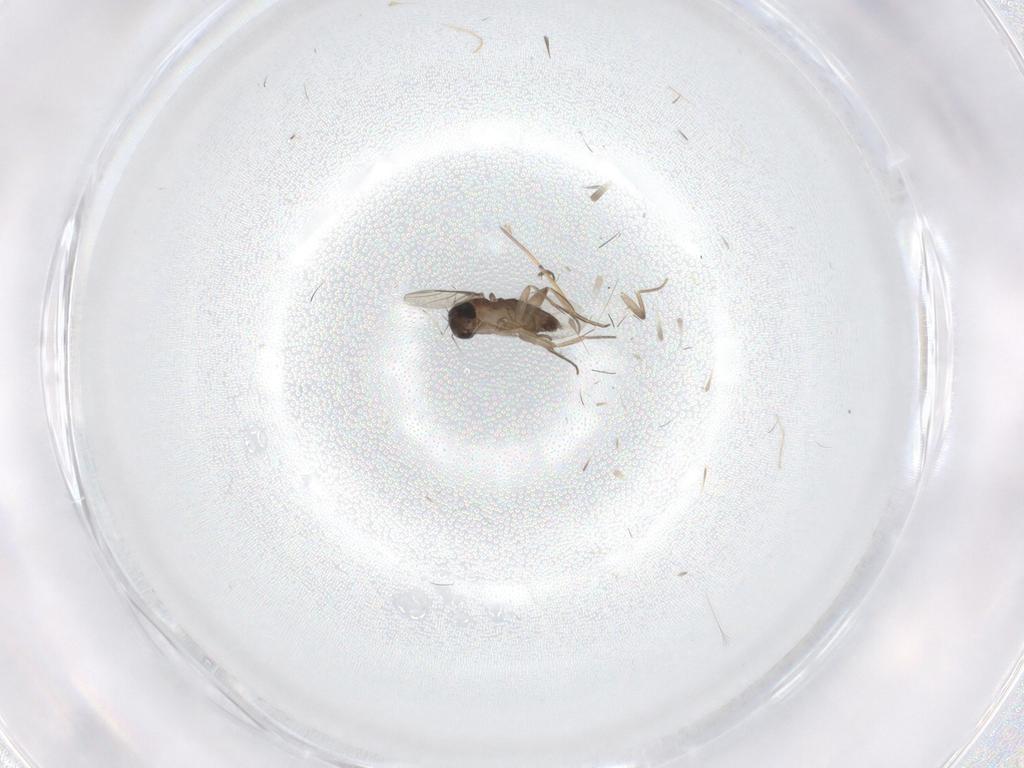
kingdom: Animalia
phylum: Arthropoda
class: Insecta
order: Diptera
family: Phoridae
